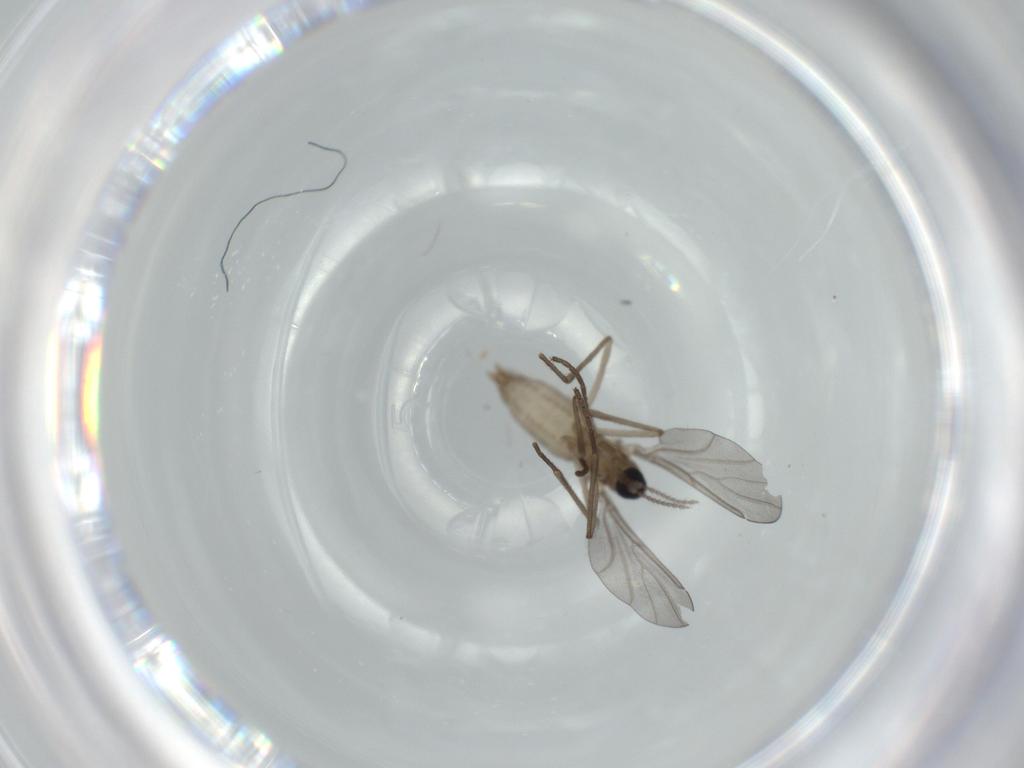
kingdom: Animalia
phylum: Arthropoda
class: Insecta
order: Diptera
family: Cecidomyiidae
